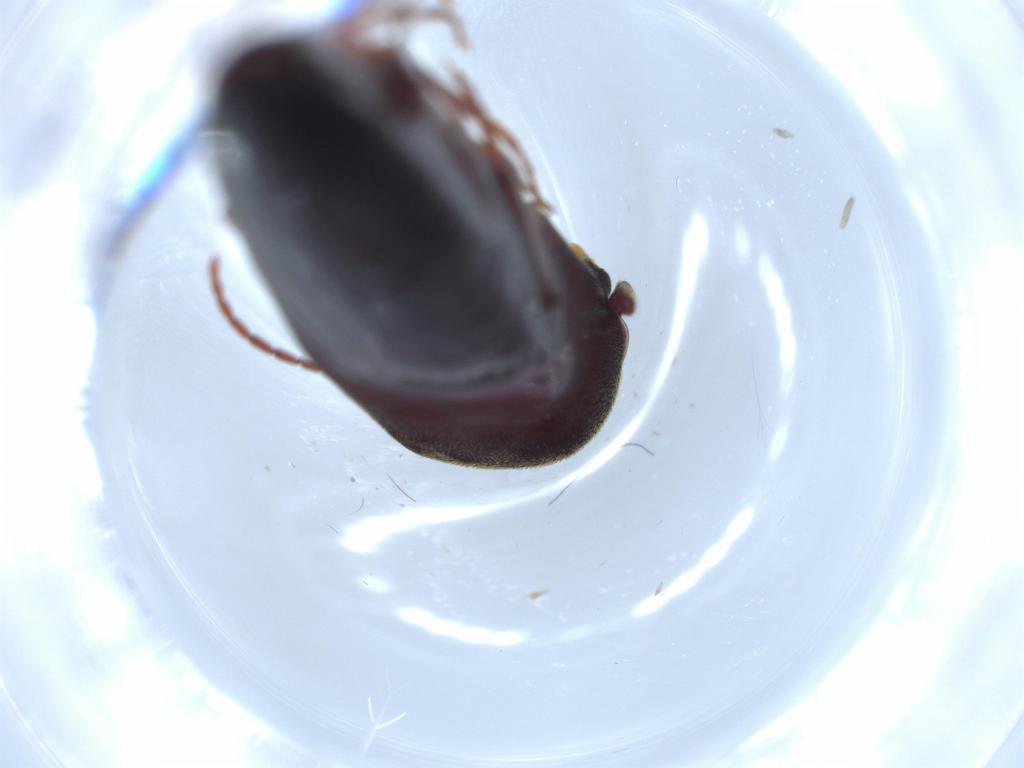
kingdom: Animalia
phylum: Arthropoda
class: Insecta
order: Coleoptera
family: Eucnemidae
